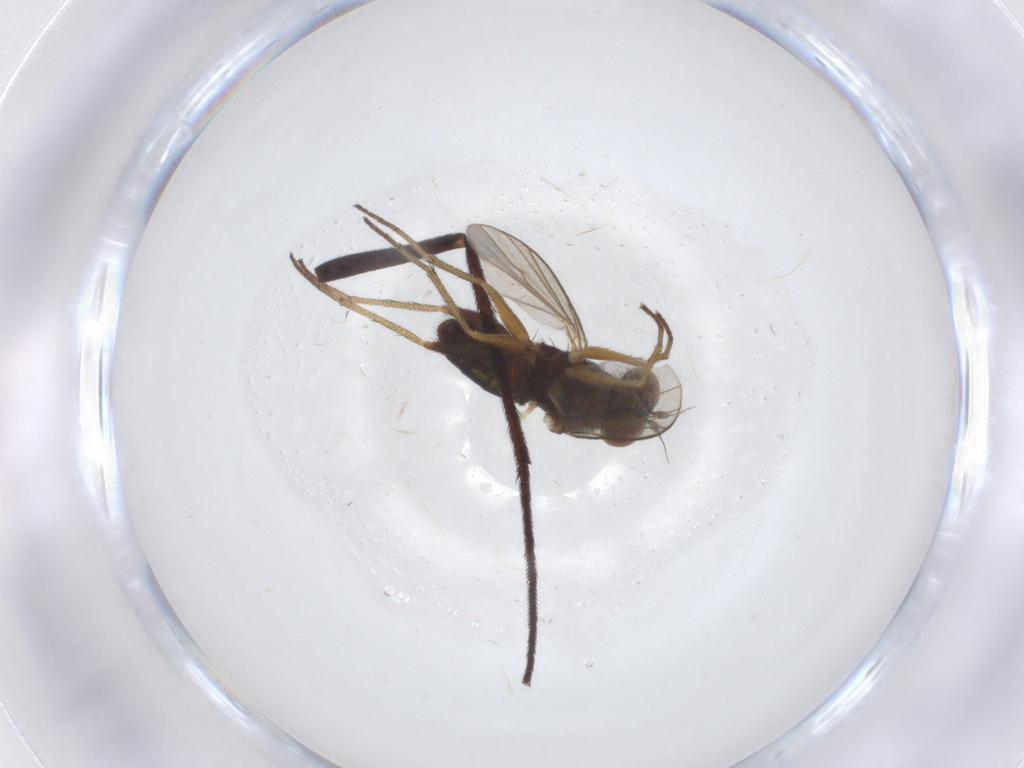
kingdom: Animalia
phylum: Arthropoda
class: Insecta
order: Diptera
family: Dolichopodidae
